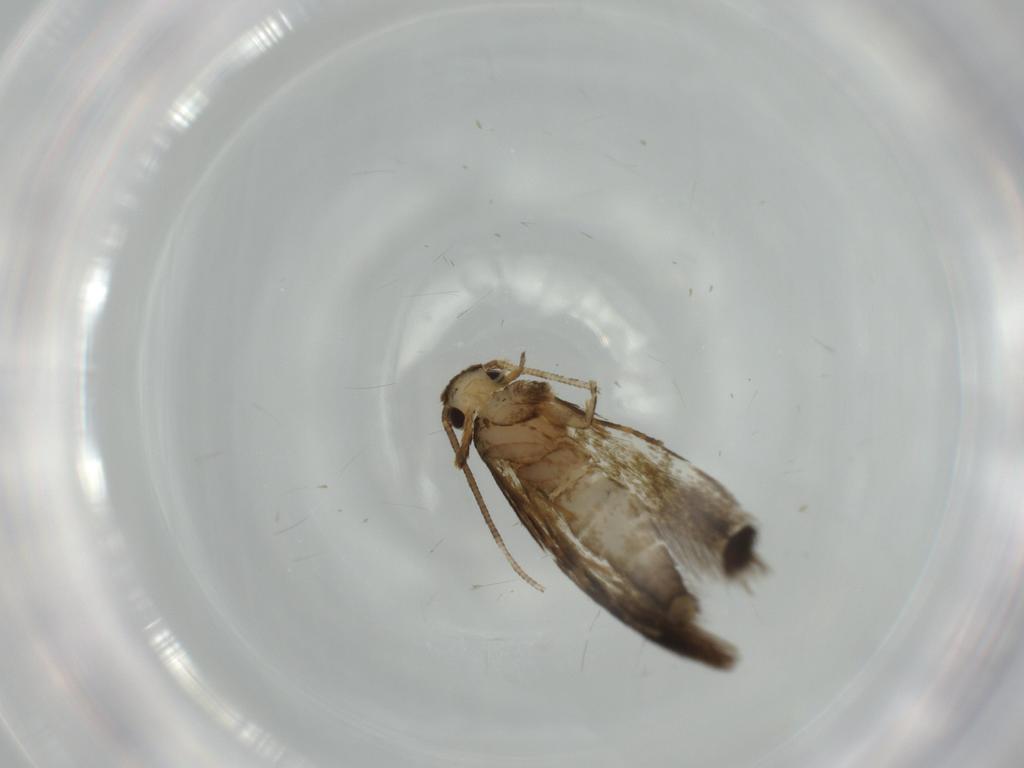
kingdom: Animalia
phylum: Arthropoda
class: Insecta
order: Lepidoptera
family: Tineidae
